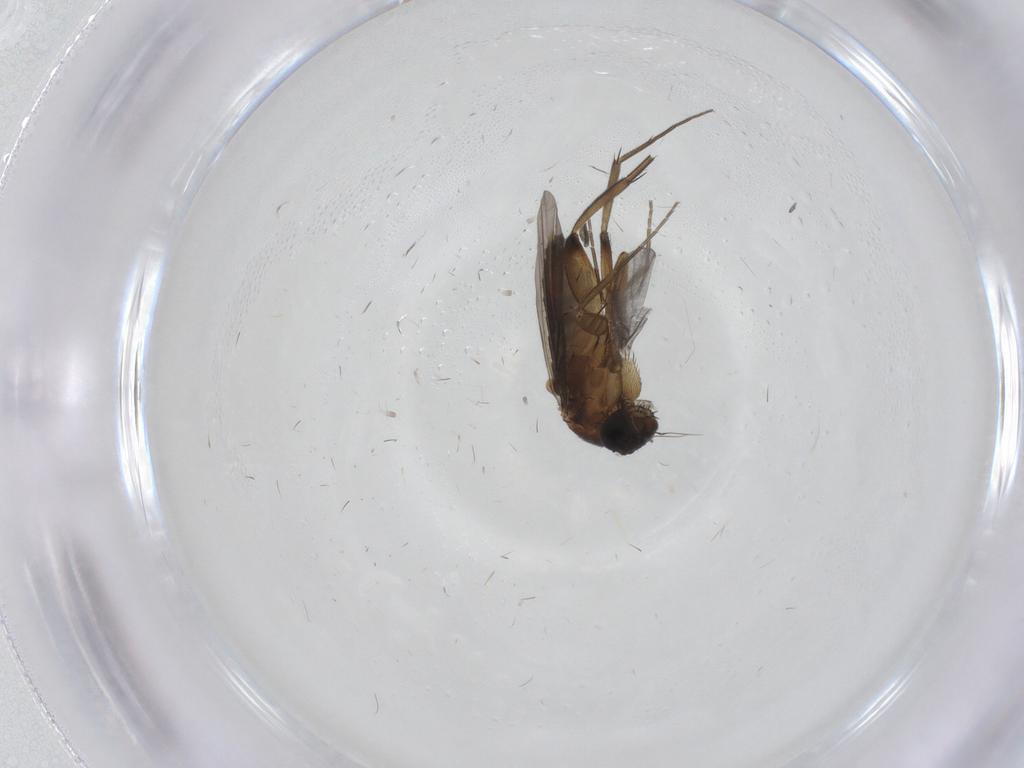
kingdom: Animalia
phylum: Arthropoda
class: Insecta
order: Diptera
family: Phoridae
